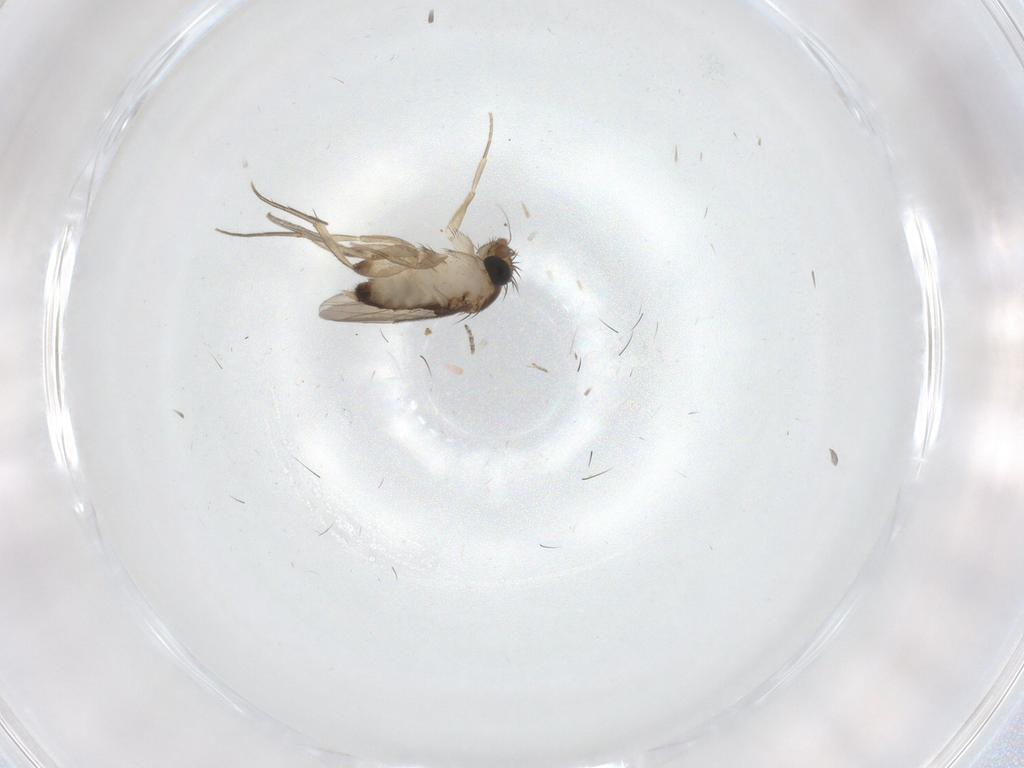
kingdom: Animalia
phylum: Arthropoda
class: Insecta
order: Diptera
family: Phoridae
